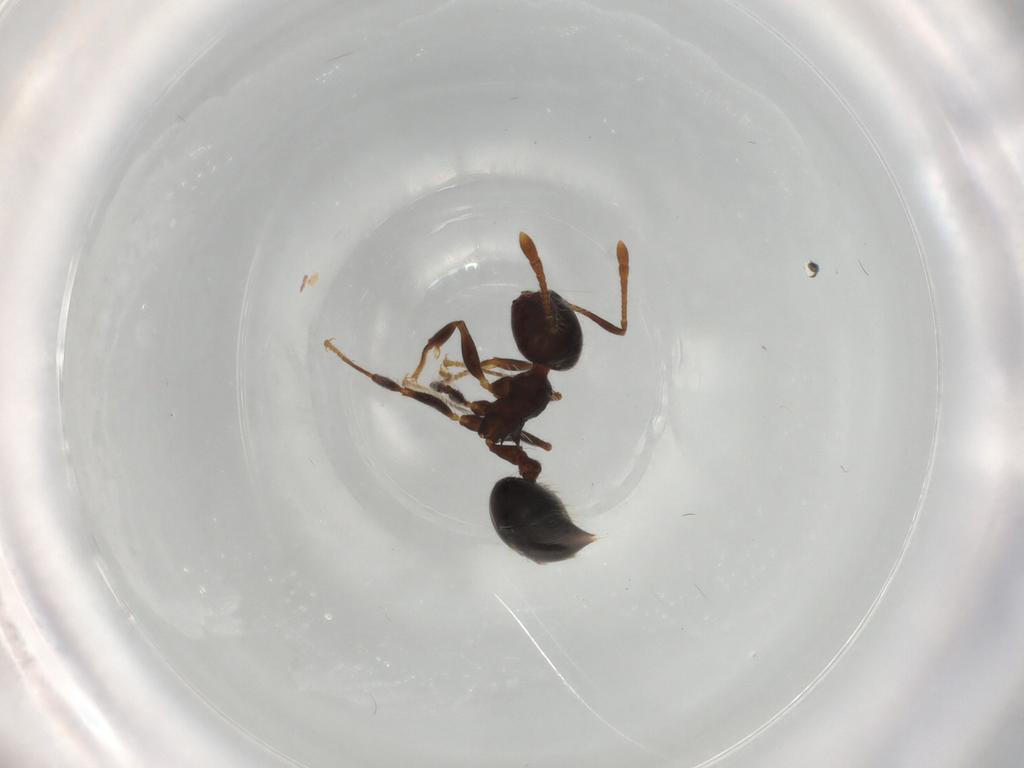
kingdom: Animalia
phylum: Arthropoda
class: Insecta
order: Hymenoptera
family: Formicidae
